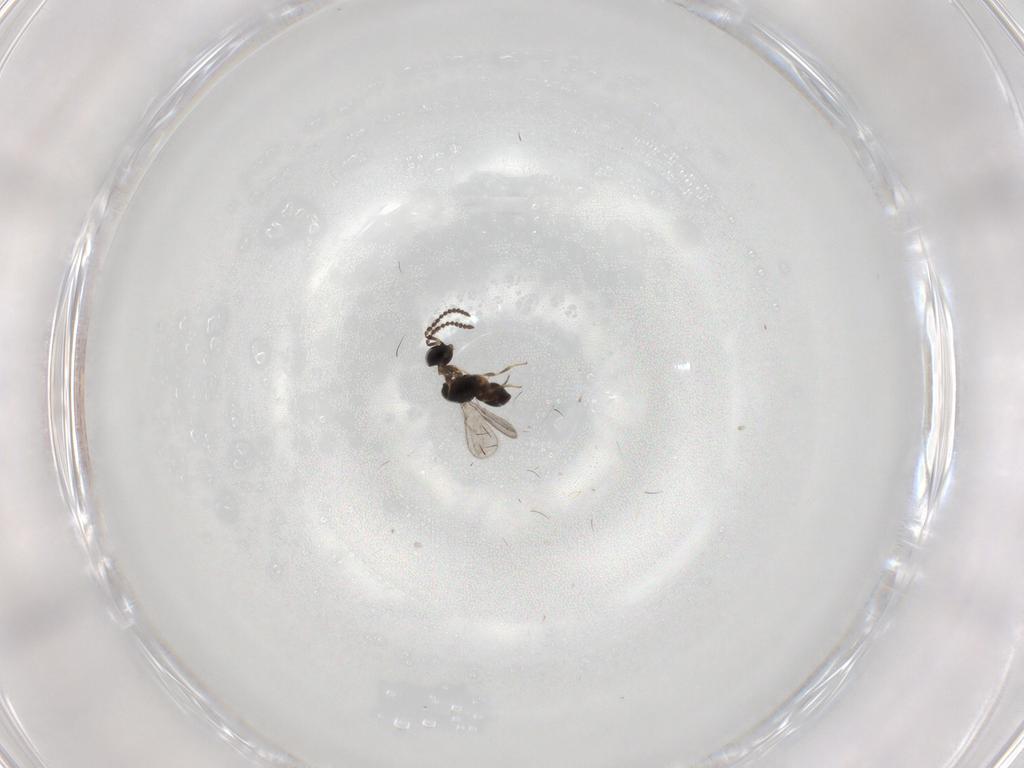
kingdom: Animalia
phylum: Arthropoda
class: Insecta
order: Hymenoptera
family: Scelionidae
